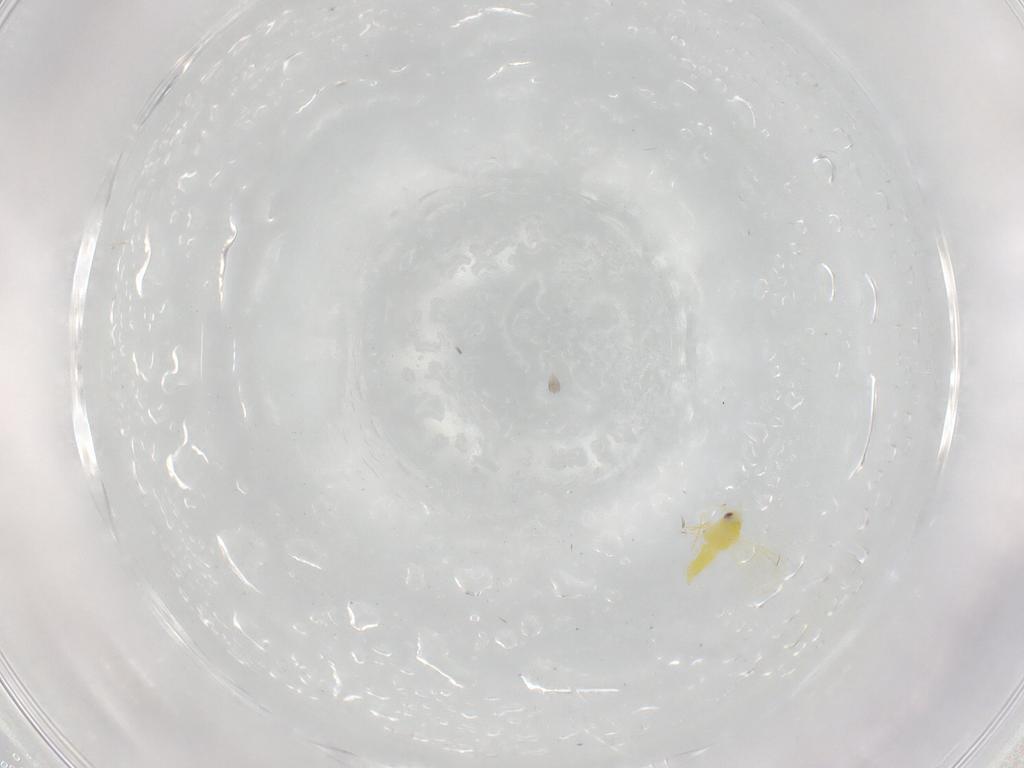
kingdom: Animalia
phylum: Arthropoda
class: Insecta
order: Hemiptera
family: Aleyrodidae
